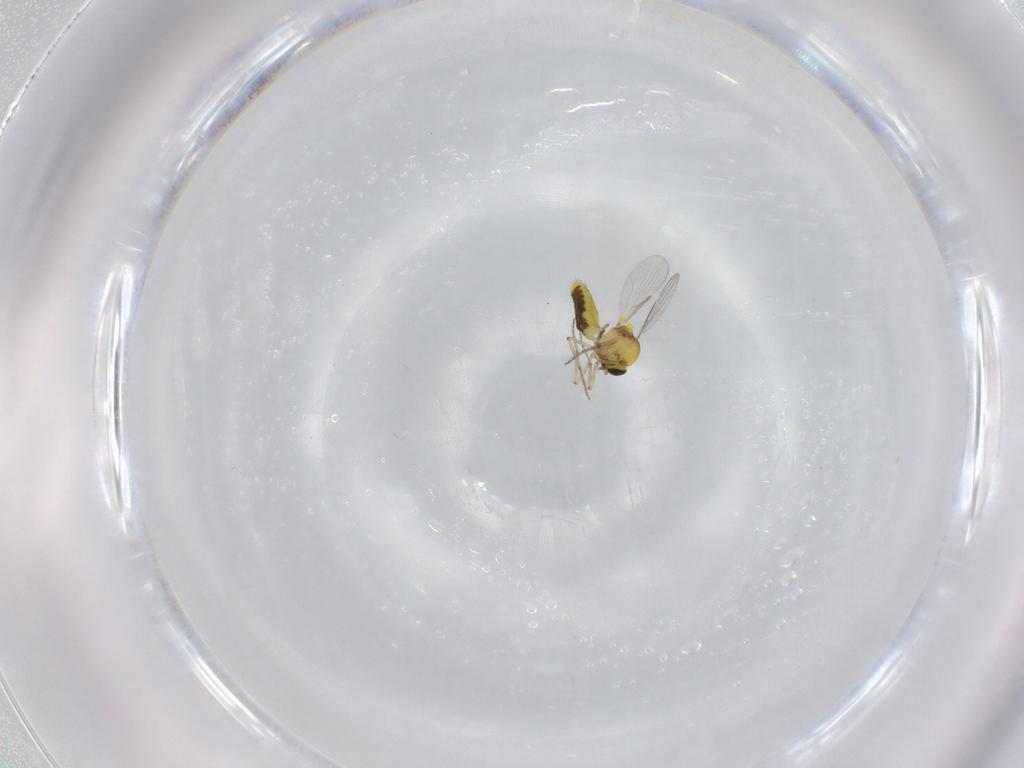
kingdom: Animalia
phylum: Arthropoda
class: Insecta
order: Diptera
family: Ceratopogonidae
